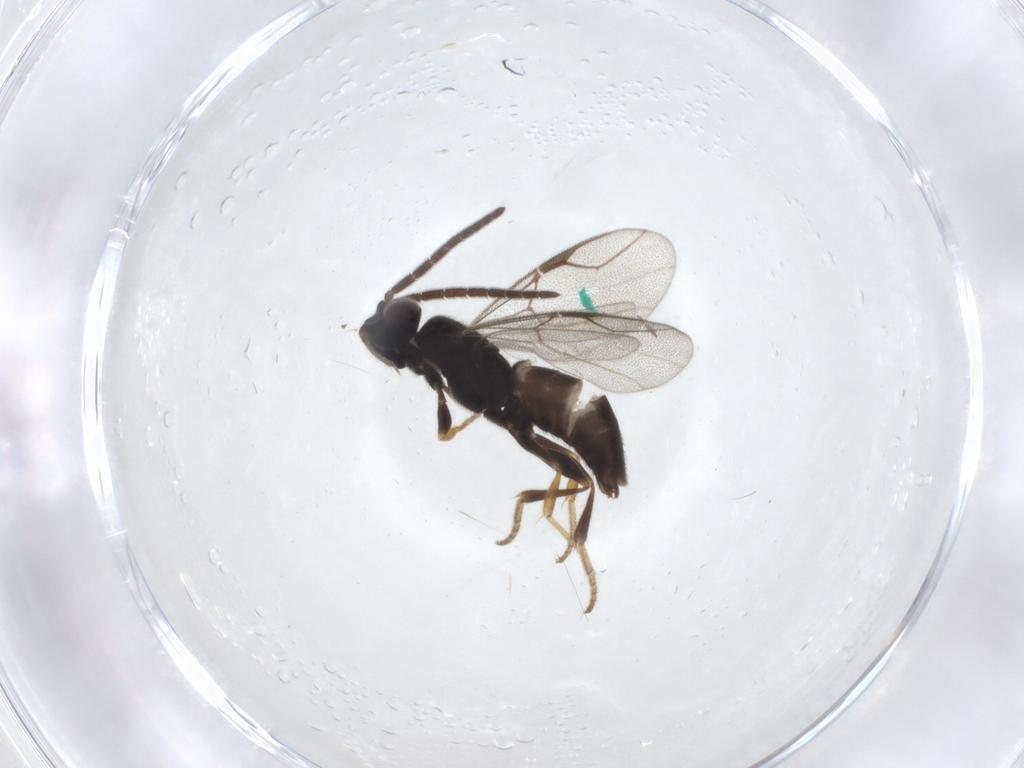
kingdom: Animalia
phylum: Arthropoda
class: Insecta
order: Hymenoptera
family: Dryinidae
